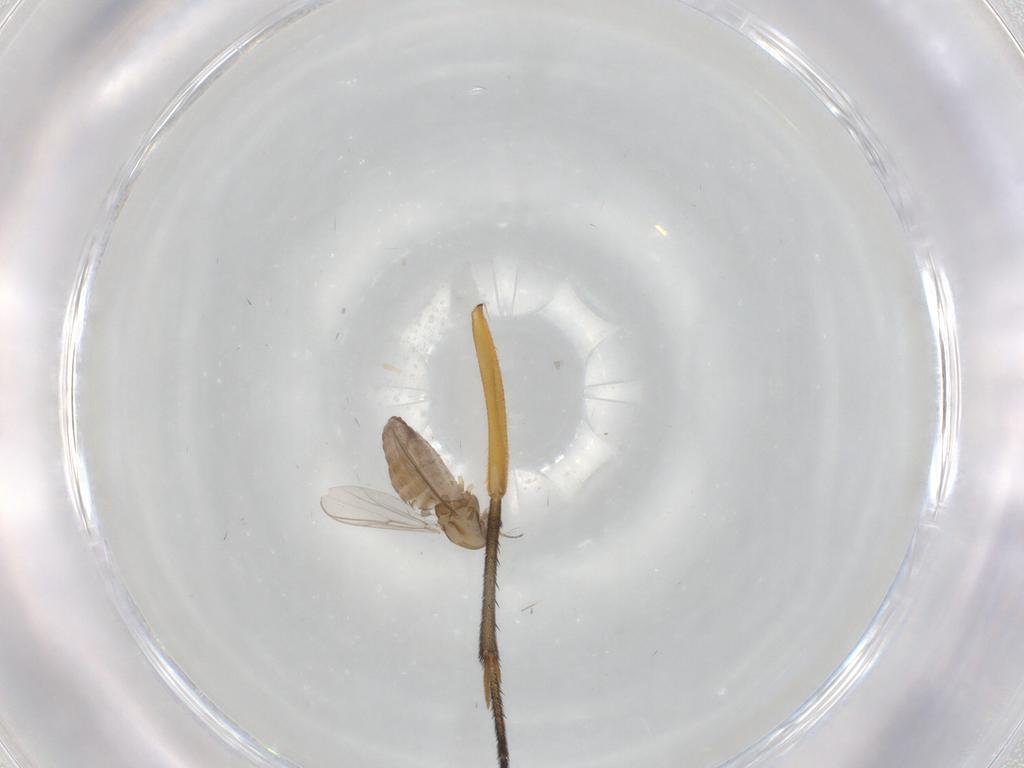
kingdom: Animalia
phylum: Arthropoda
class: Insecta
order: Diptera
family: Chironomidae
